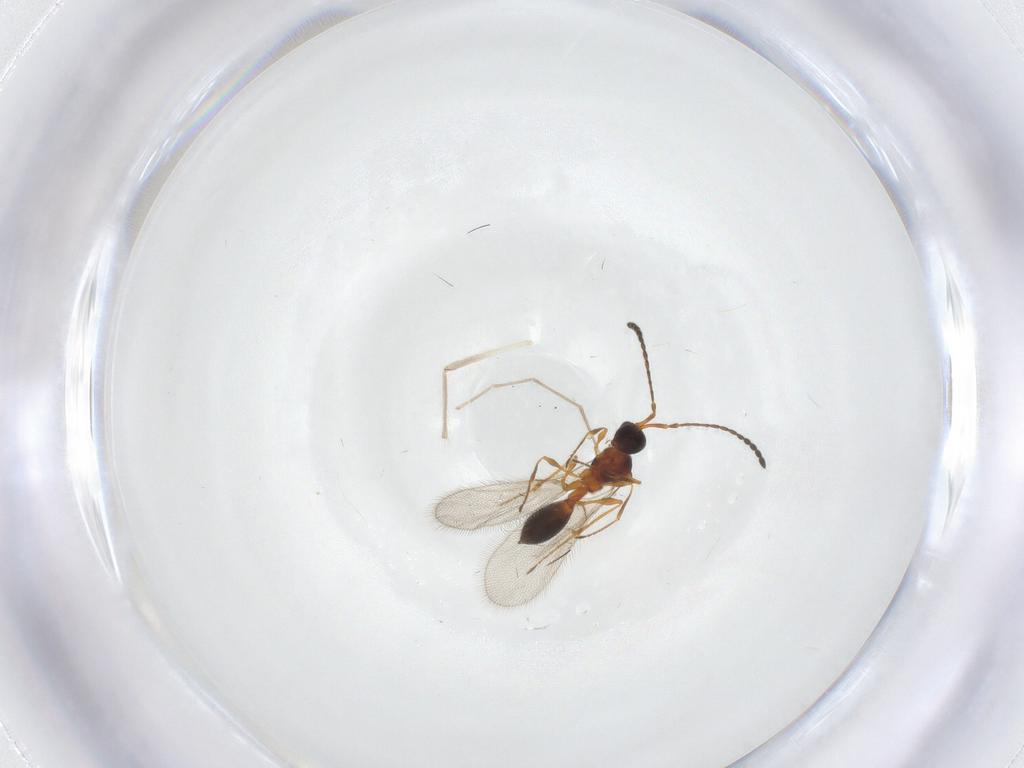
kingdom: Animalia
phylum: Arthropoda
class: Insecta
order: Hymenoptera
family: Diapriidae
